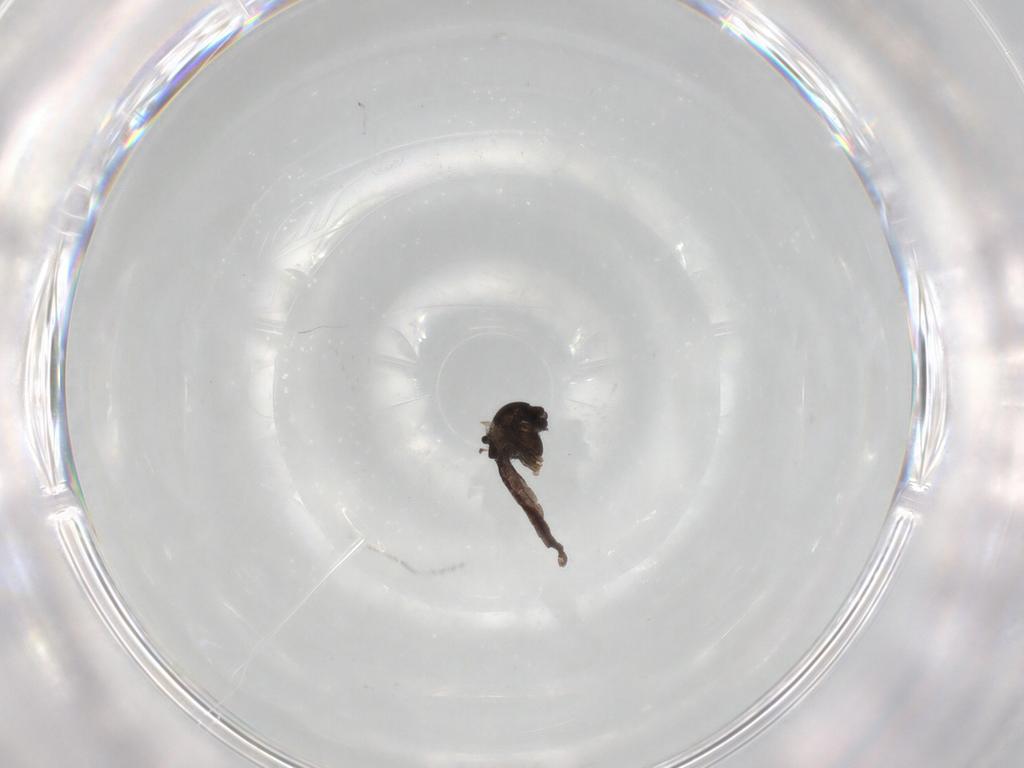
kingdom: Animalia
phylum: Arthropoda
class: Insecta
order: Diptera
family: Chironomidae
